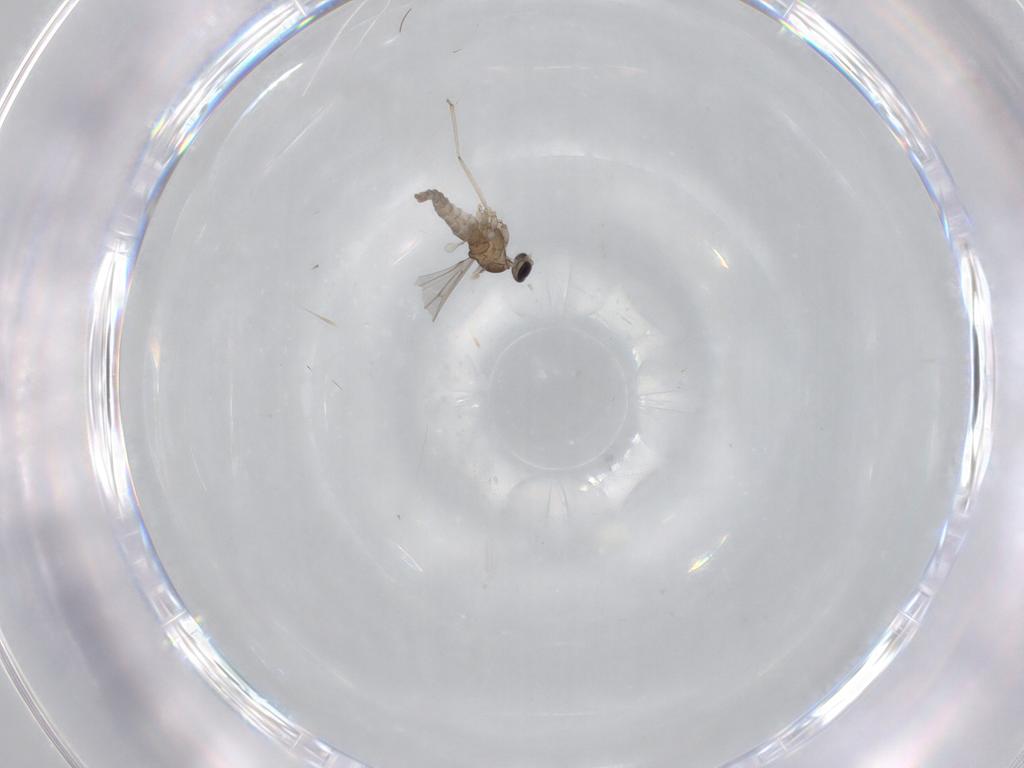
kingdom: Animalia
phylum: Arthropoda
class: Insecta
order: Diptera
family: Cecidomyiidae
